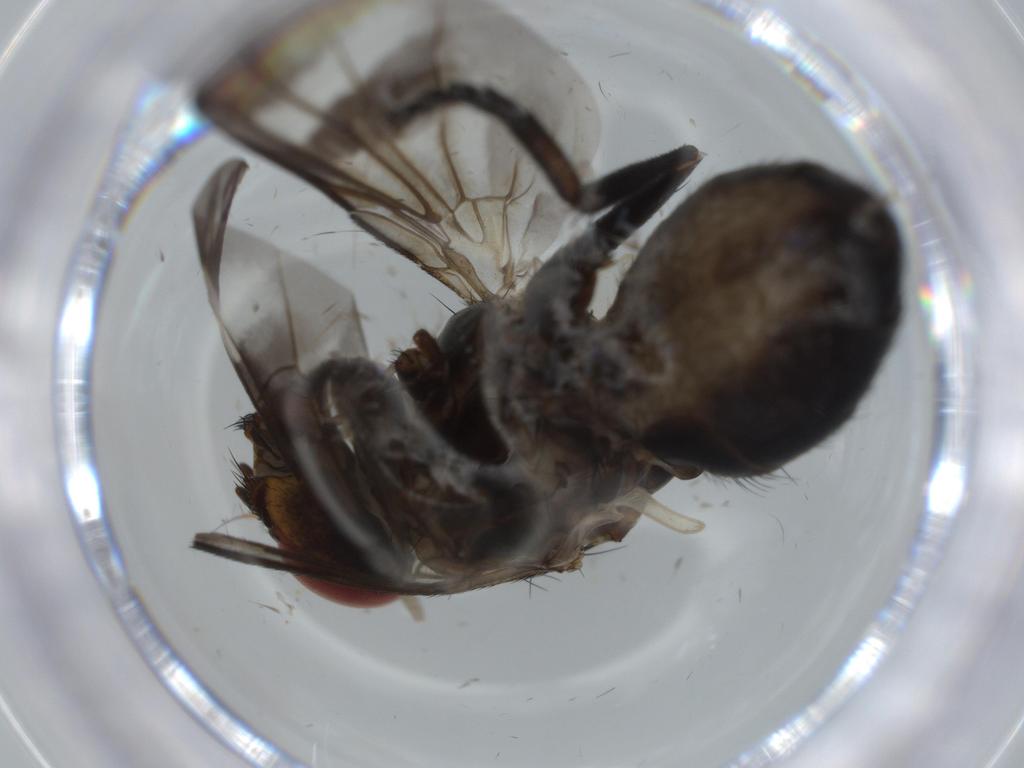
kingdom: Animalia
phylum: Arthropoda
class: Insecta
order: Diptera
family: Calliphoridae
